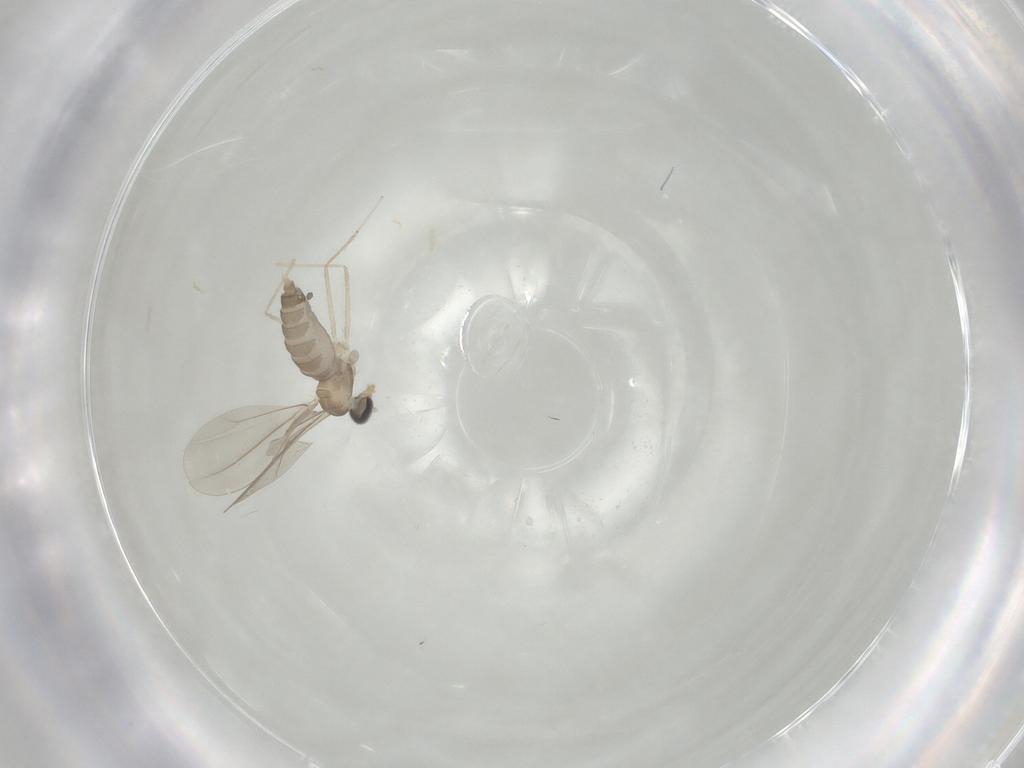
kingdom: Animalia
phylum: Arthropoda
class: Insecta
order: Diptera
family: Cecidomyiidae
